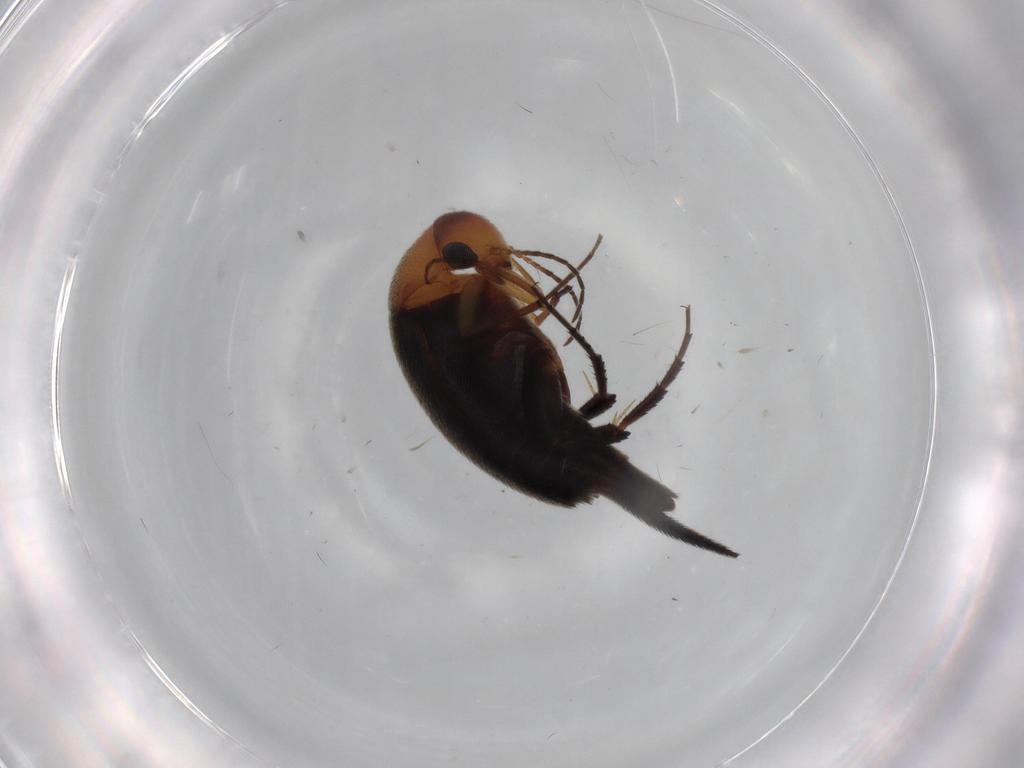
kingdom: Animalia
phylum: Arthropoda
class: Insecta
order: Coleoptera
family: Mordellidae
